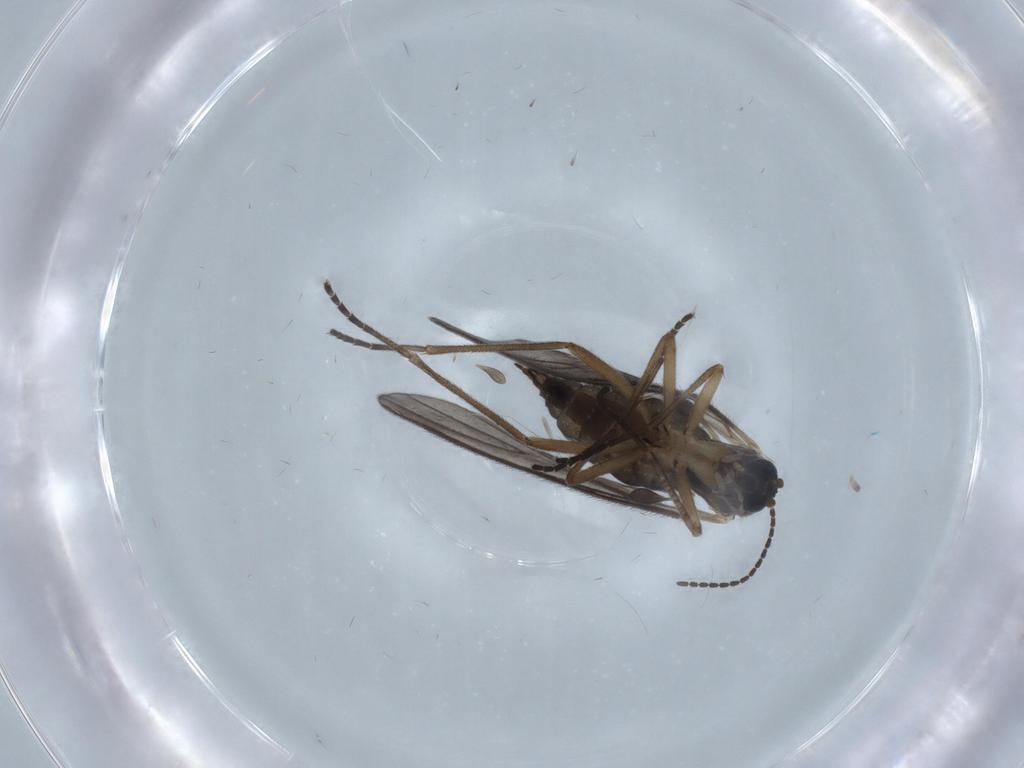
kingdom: Animalia
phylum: Arthropoda
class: Insecta
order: Diptera
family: Sciaridae
